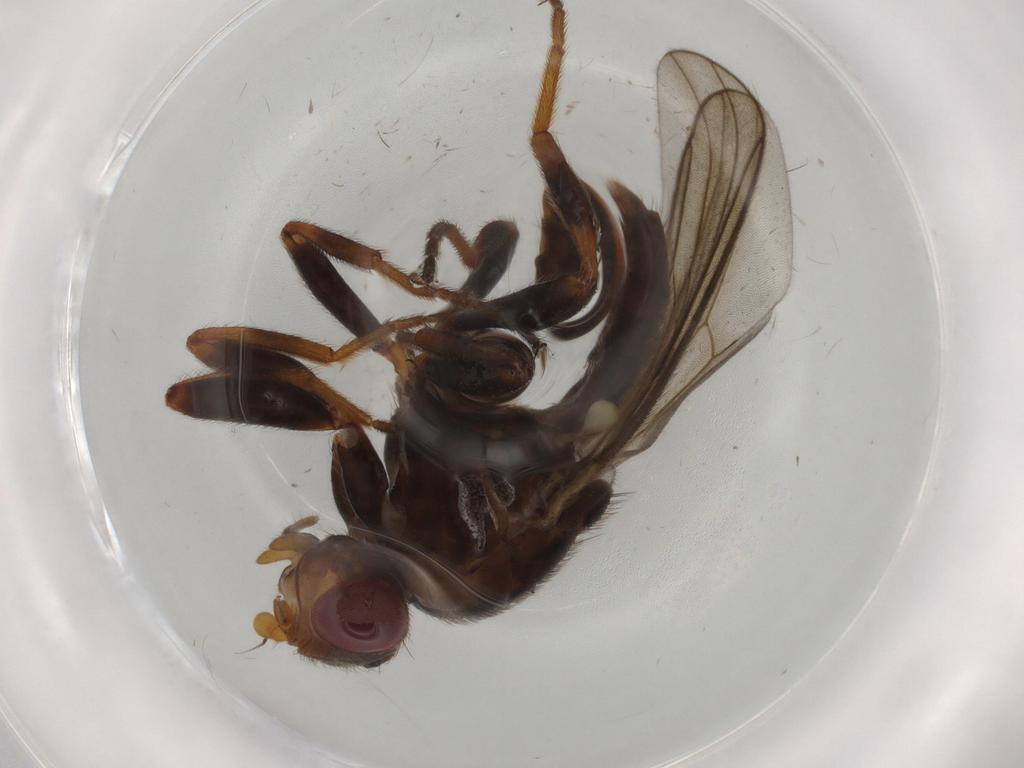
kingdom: Animalia
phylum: Arthropoda
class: Insecta
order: Diptera
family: Chloropidae
